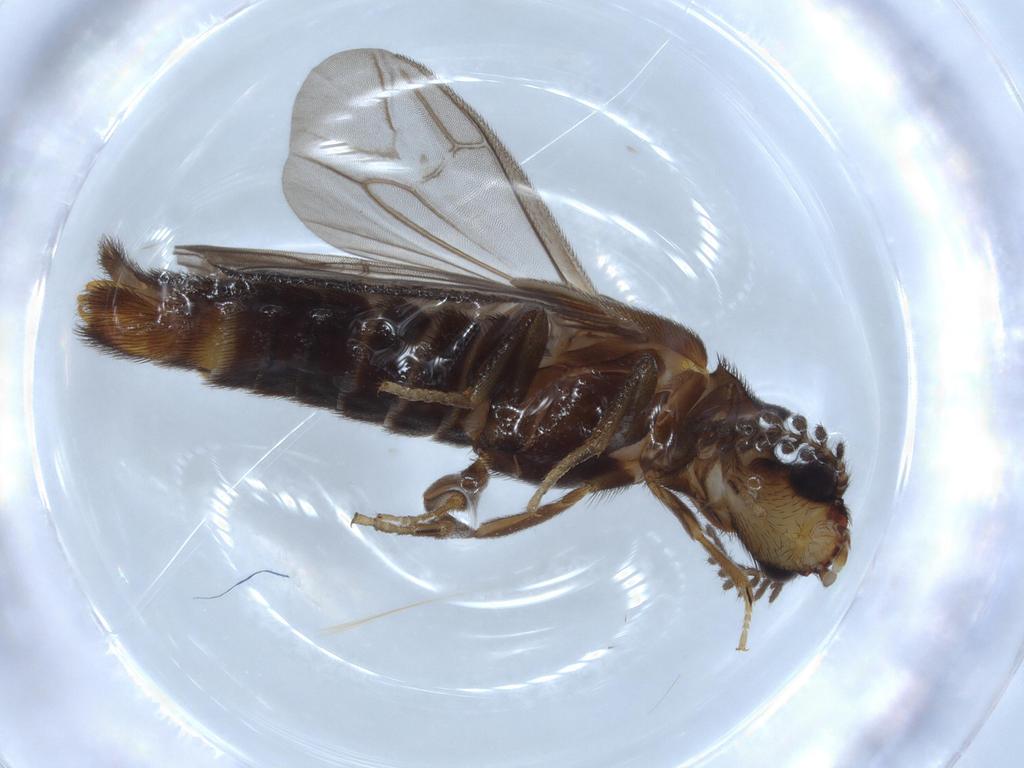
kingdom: Animalia
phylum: Arthropoda
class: Insecta
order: Coleoptera
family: Phengodidae
